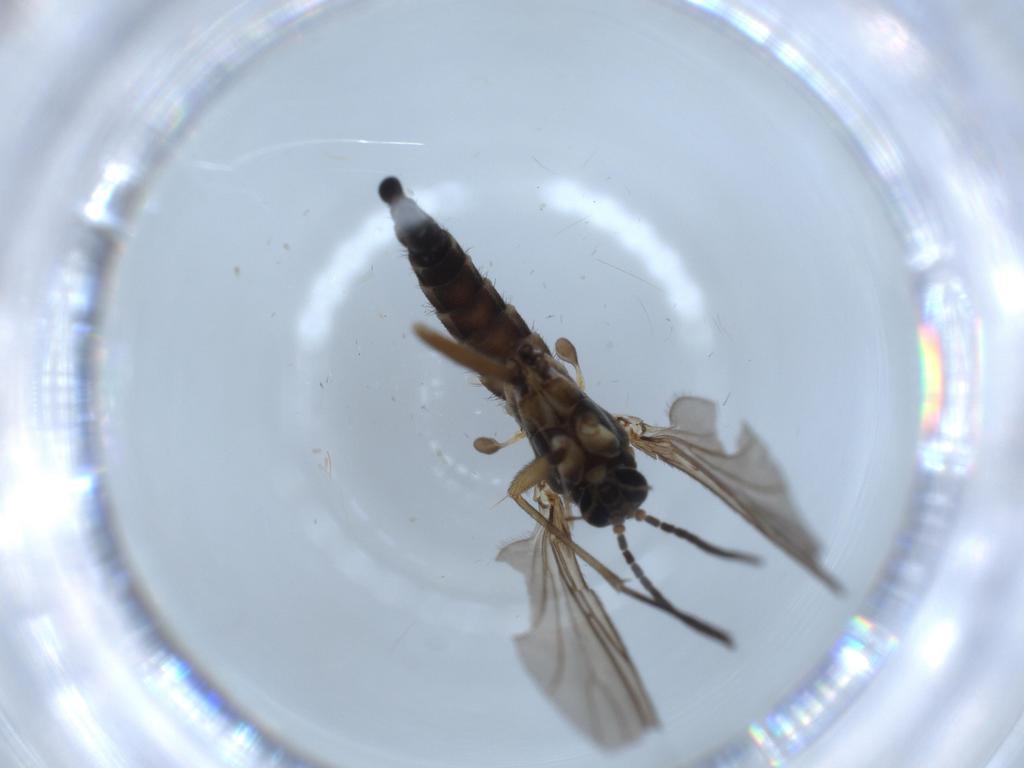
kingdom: Animalia
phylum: Arthropoda
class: Insecta
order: Diptera
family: Sciaridae
